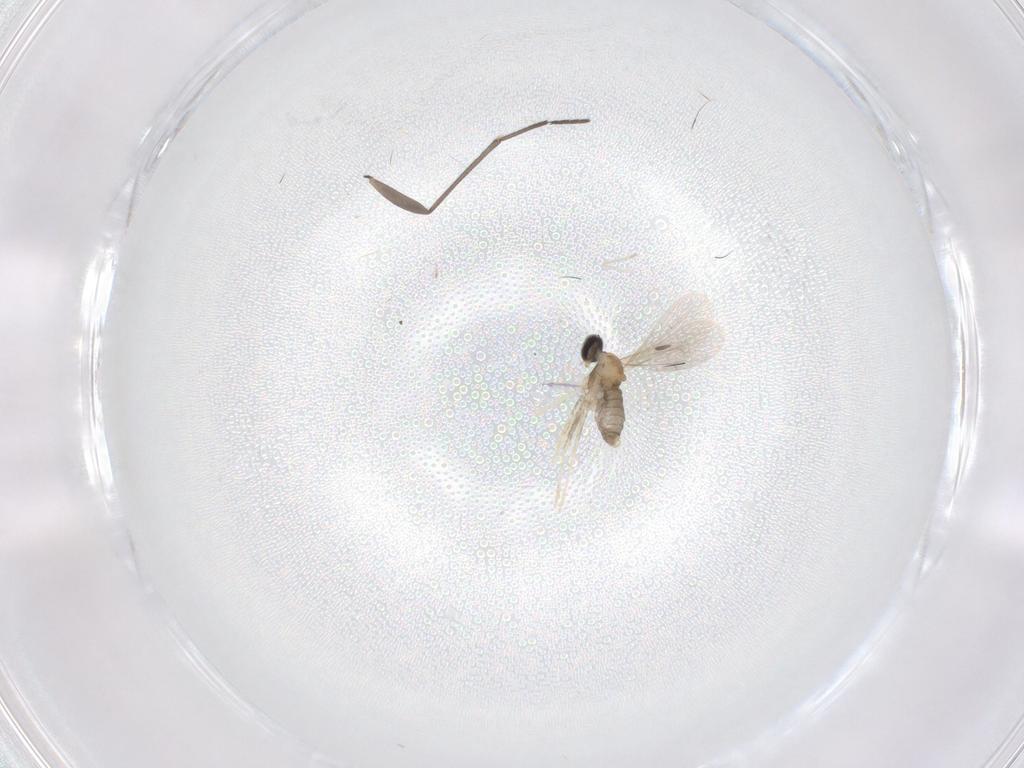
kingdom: Animalia
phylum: Arthropoda
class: Insecta
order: Diptera
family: Cecidomyiidae
